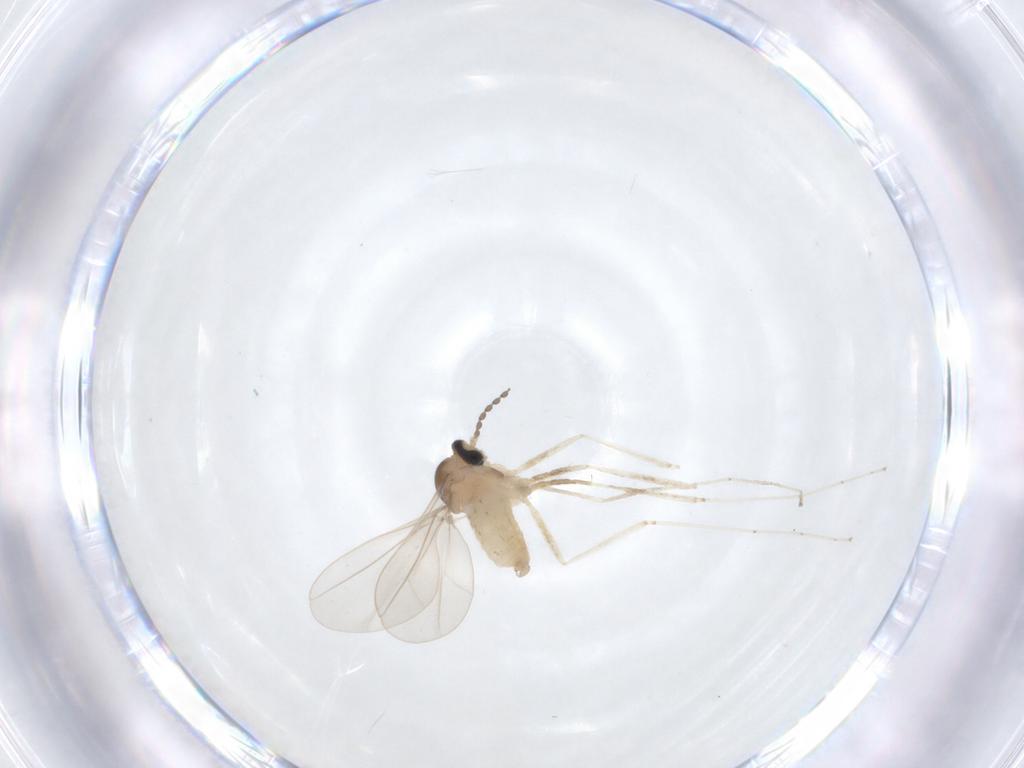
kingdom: Animalia
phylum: Arthropoda
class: Insecta
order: Diptera
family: Cecidomyiidae
